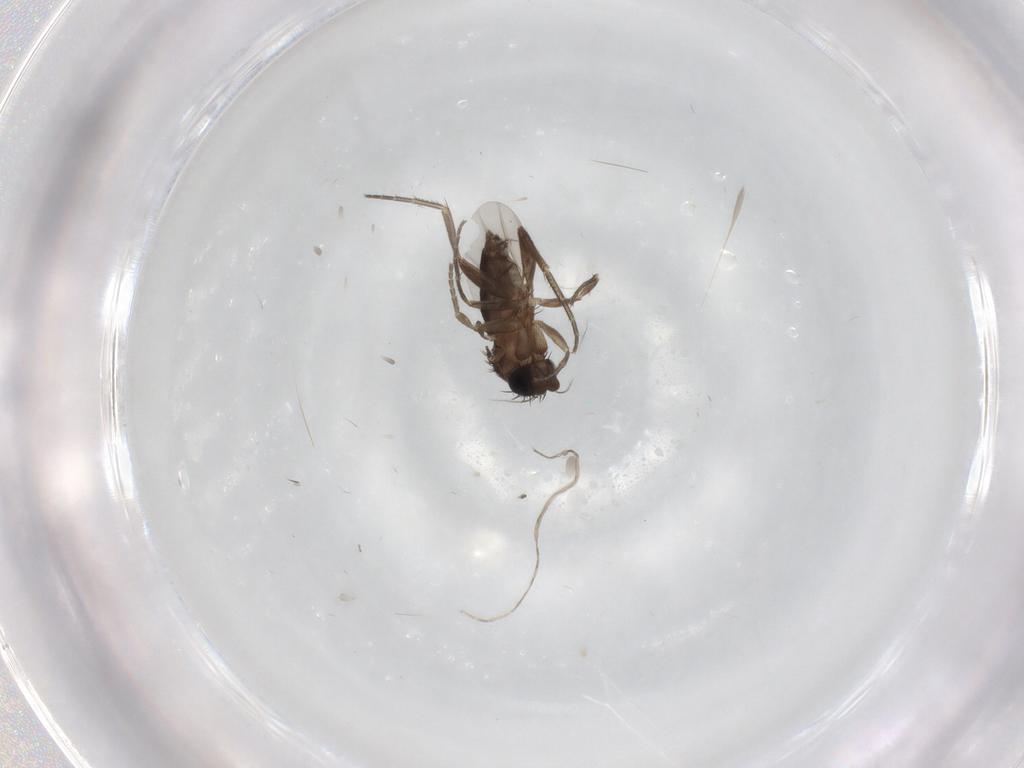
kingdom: Animalia
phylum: Arthropoda
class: Insecta
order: Diptera
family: Phoridae
